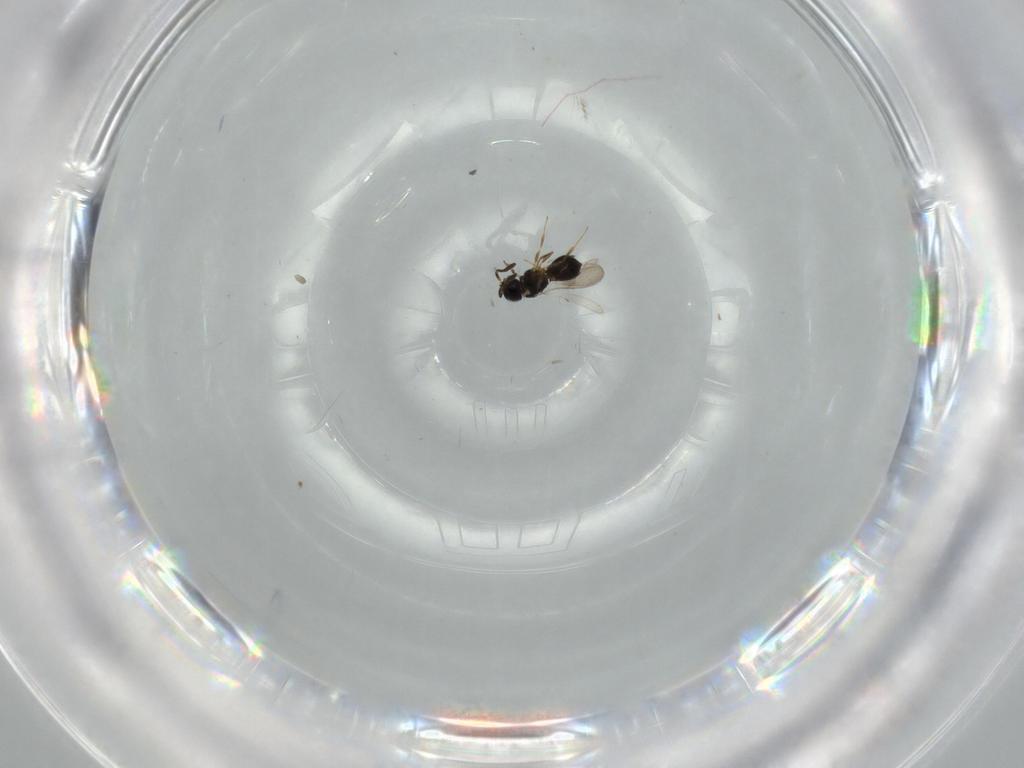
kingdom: Animalia
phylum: Arthropoda
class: Insecta
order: Hymenoptera
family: Scelionidae
